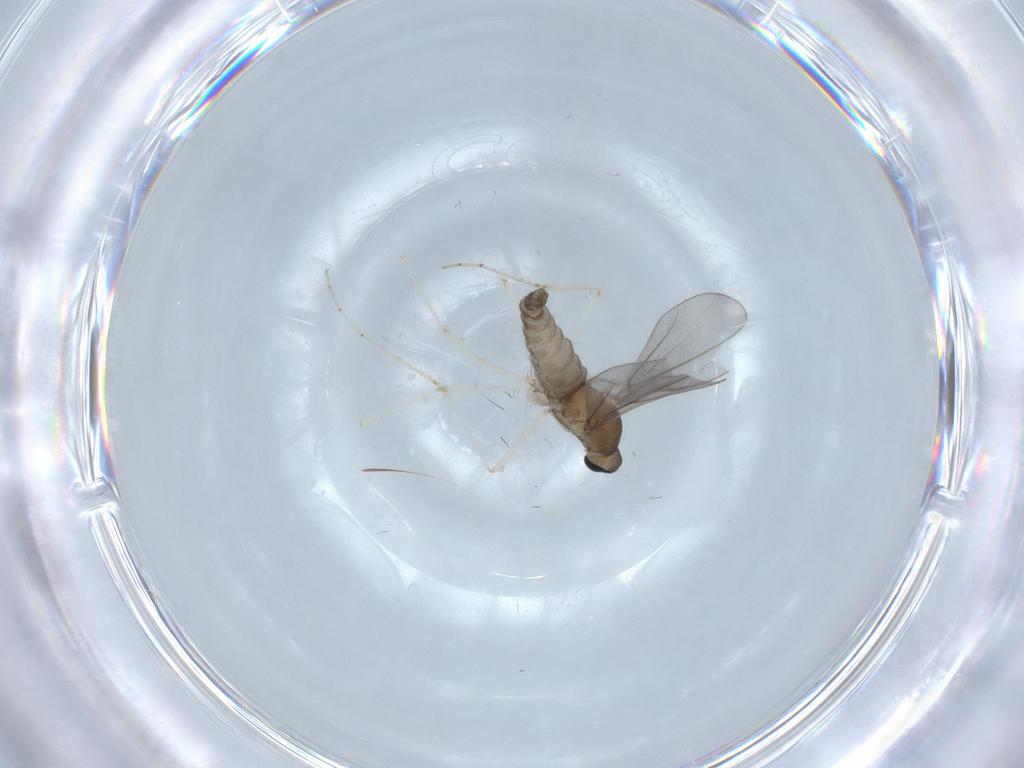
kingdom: Animalia
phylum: Arthropoda
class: Insecta
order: Diptera
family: Cecidomyiidae
